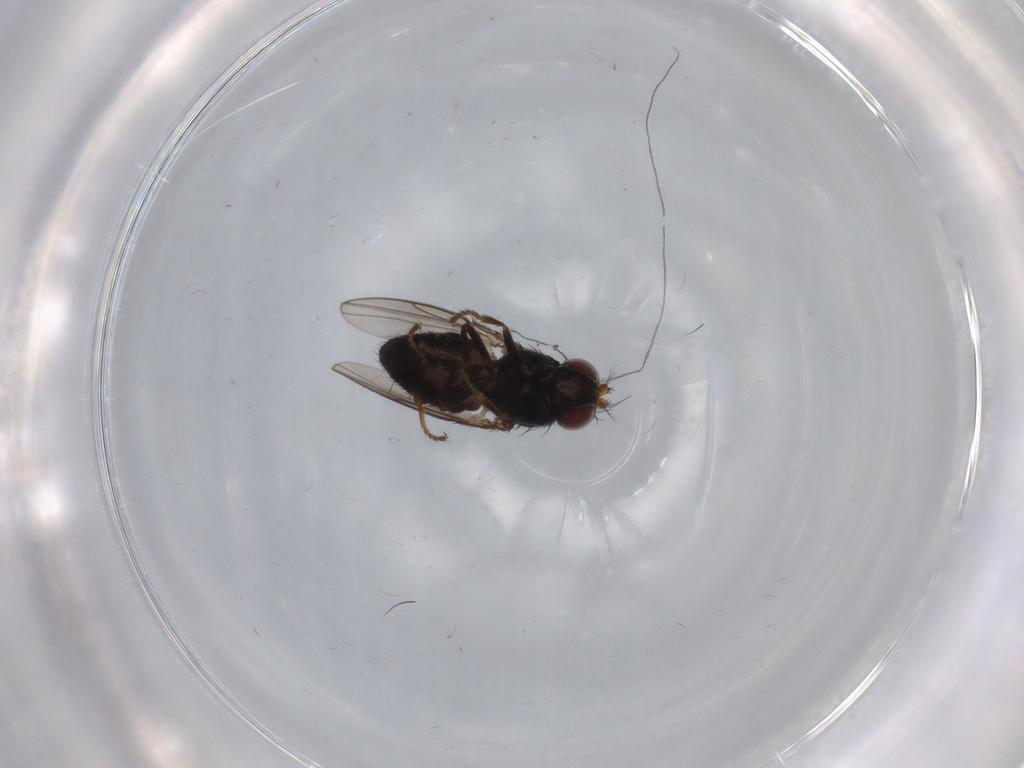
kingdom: Animalia
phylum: Arthropoda
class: Insecta
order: Diptera
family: Ephydridae
